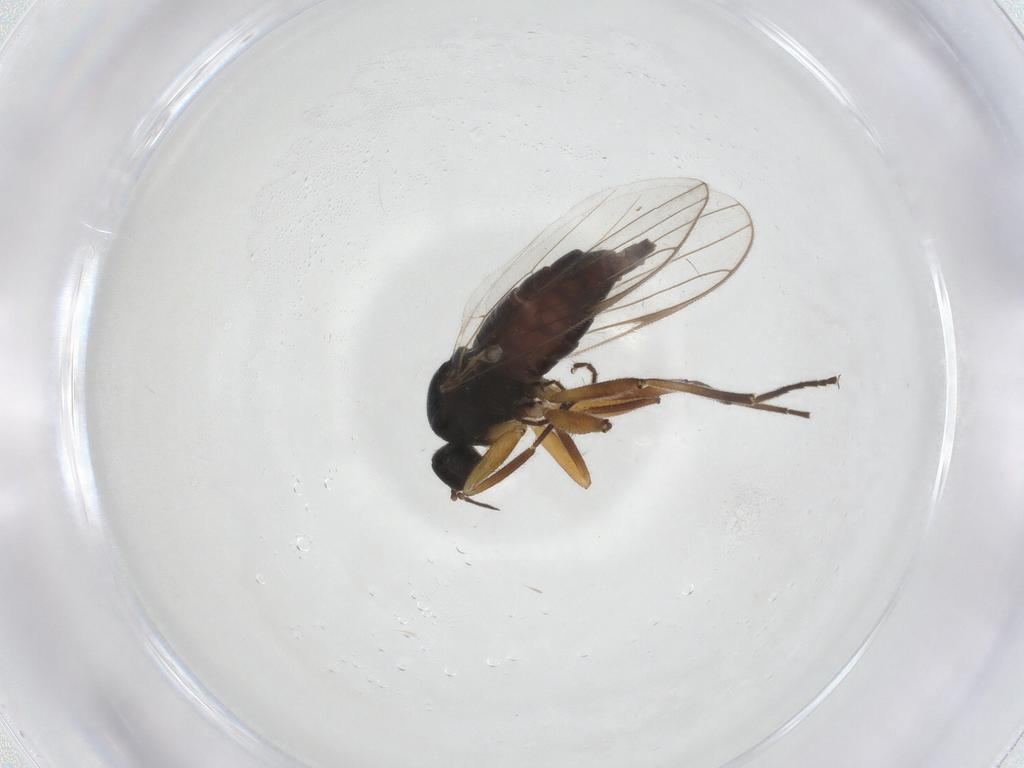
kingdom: Animalia
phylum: Arthropoda
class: Insecta
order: Diptera
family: Hybotidae
